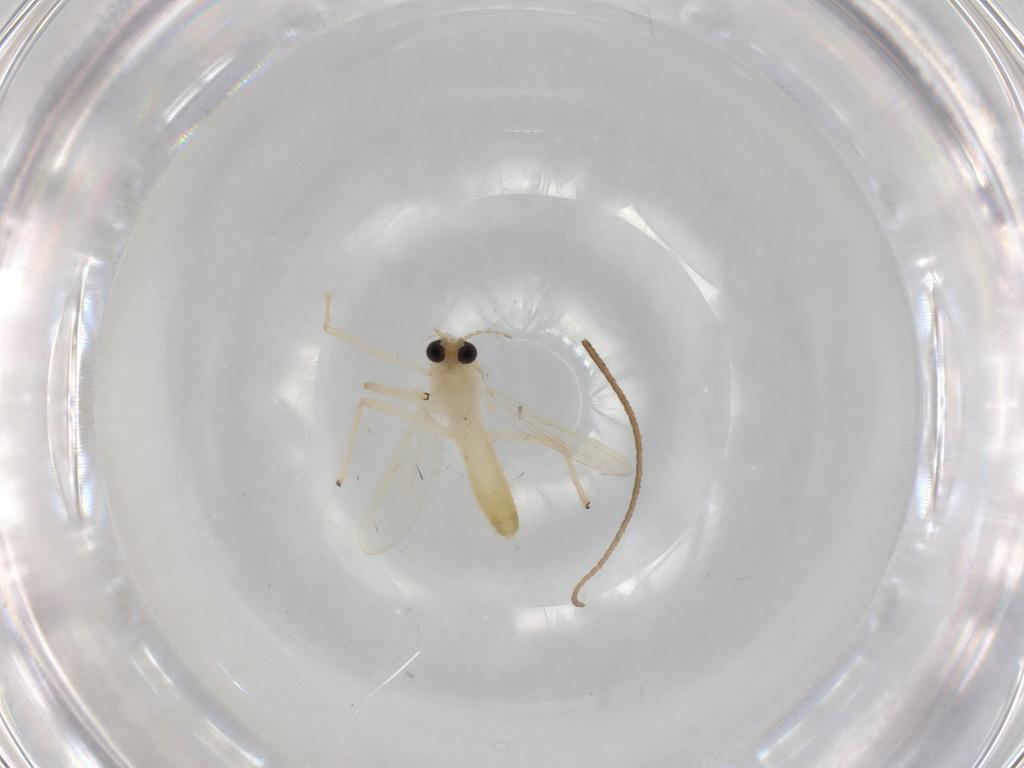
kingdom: Animalia
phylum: Arthropoda
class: Insecta
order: Diptera
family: Chironomidae
